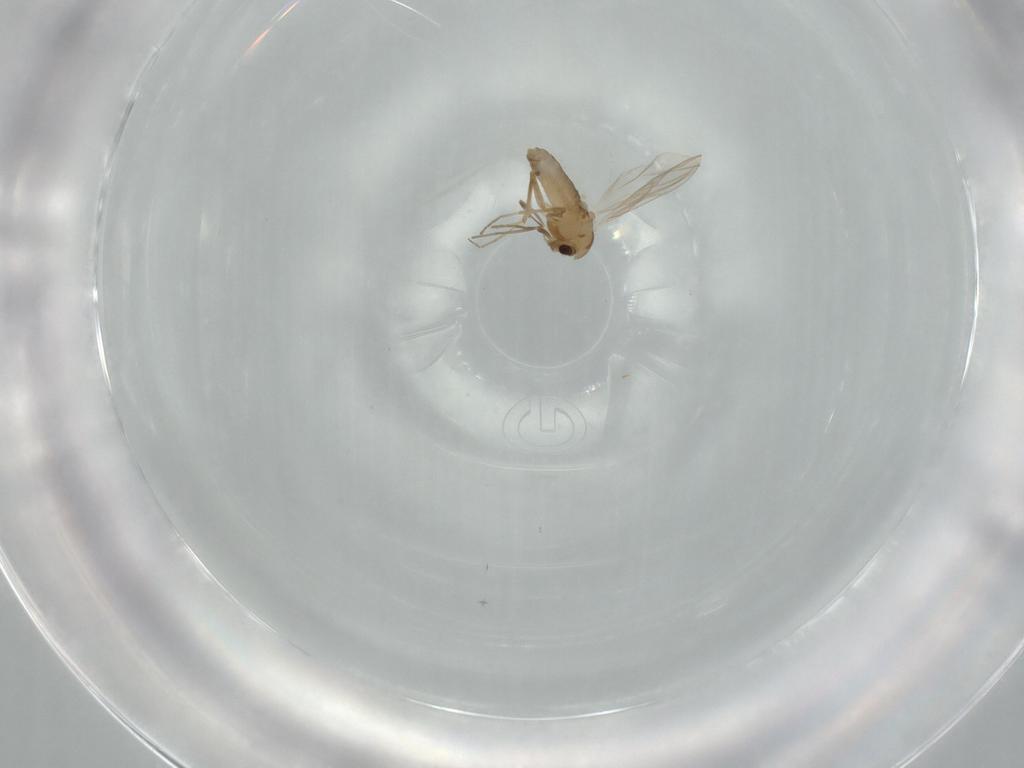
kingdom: Animalia
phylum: Arthropoda
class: Insecta
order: Diptera
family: Chironomidae
